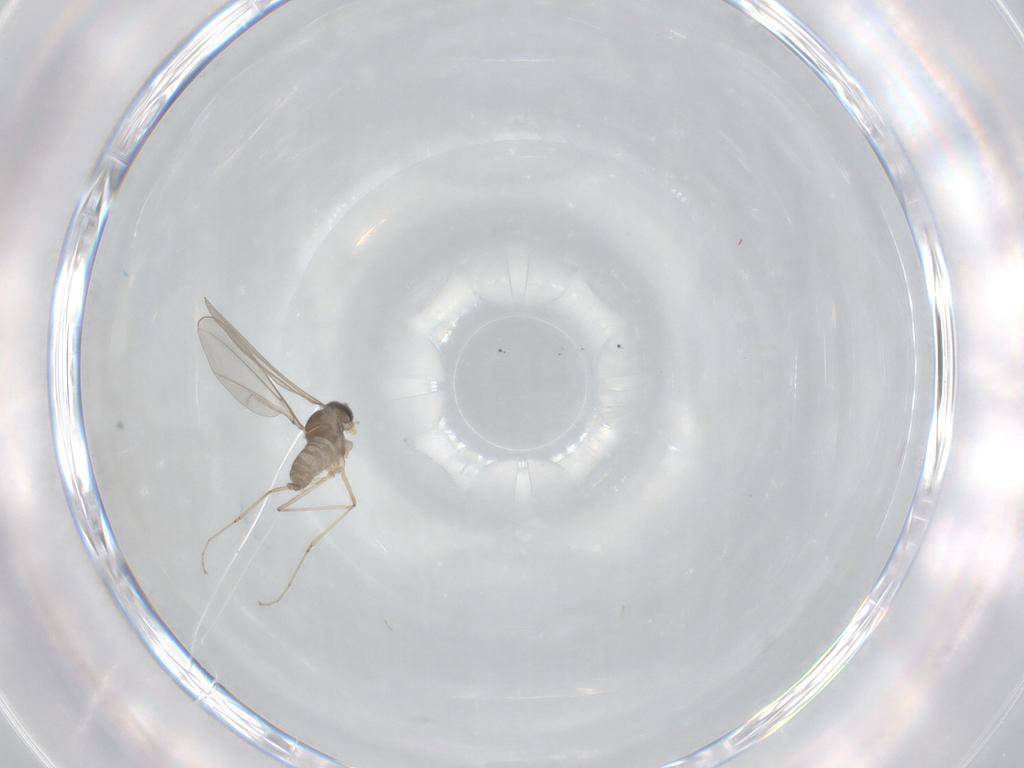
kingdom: Animalia
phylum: Arthropoda
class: Insecta
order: Diptera
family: Cecidomyiidae
